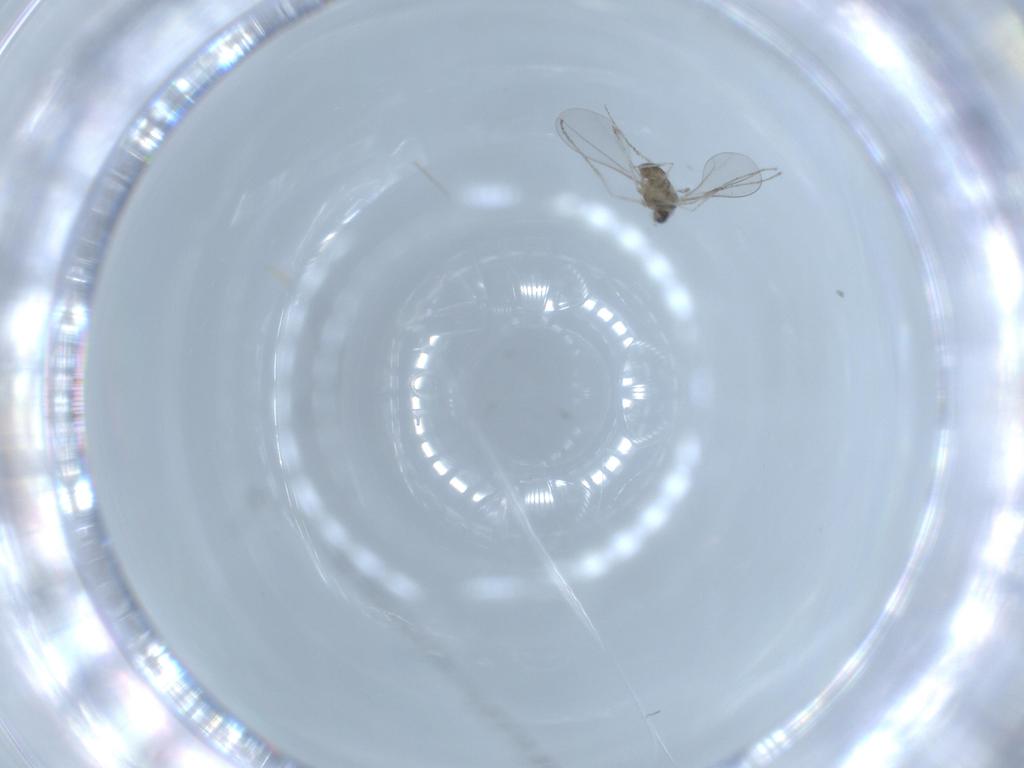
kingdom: Animalia
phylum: Arthropoda
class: Insecta
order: Diptera
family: Cecidomyiidae
